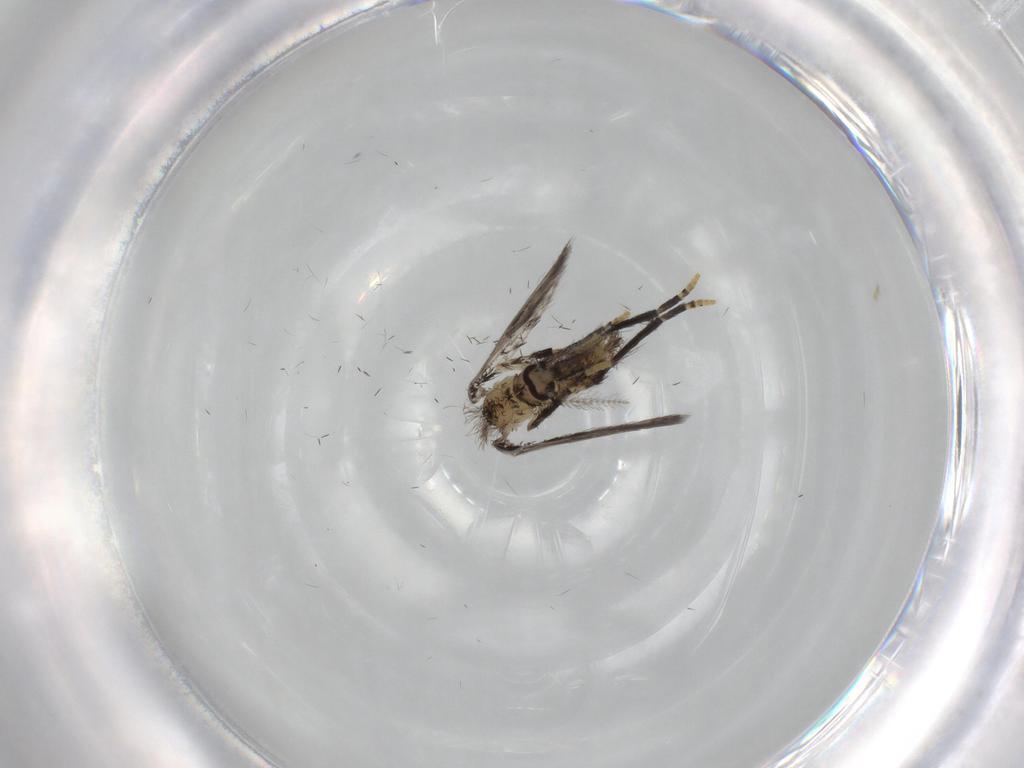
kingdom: Animalia
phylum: Arthropoda
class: Insecta
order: Diptera
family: Psychodidae
